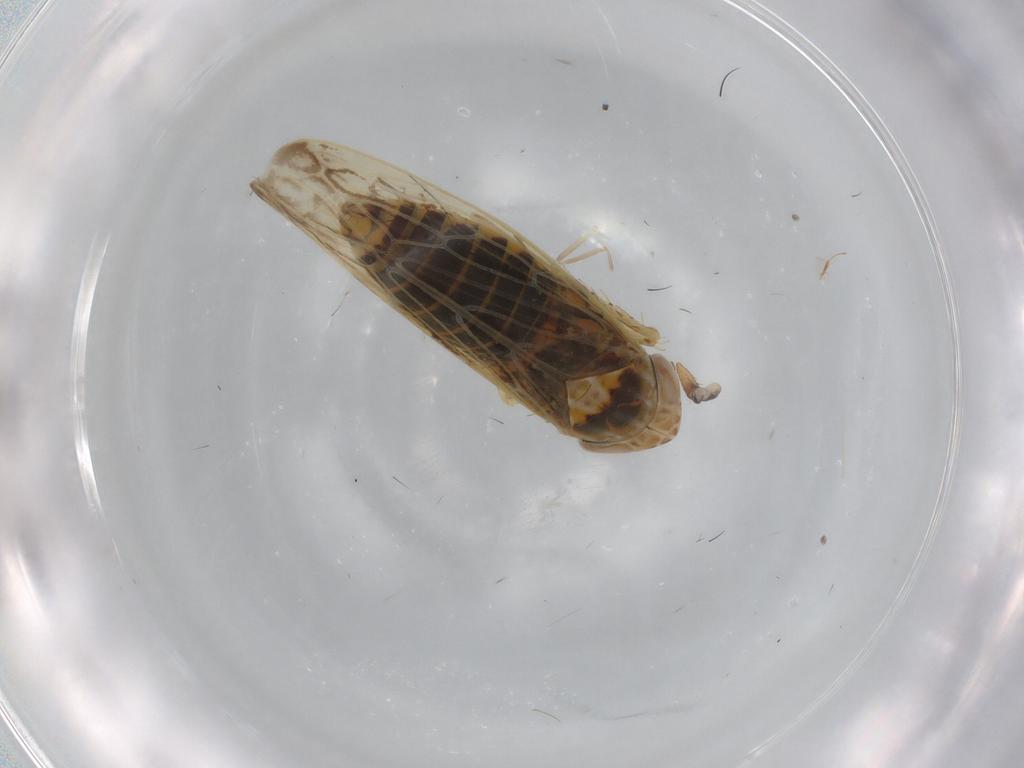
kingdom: Animalia
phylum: Arthropoda
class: Insecta
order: Hemiptera
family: Cicadellidae
